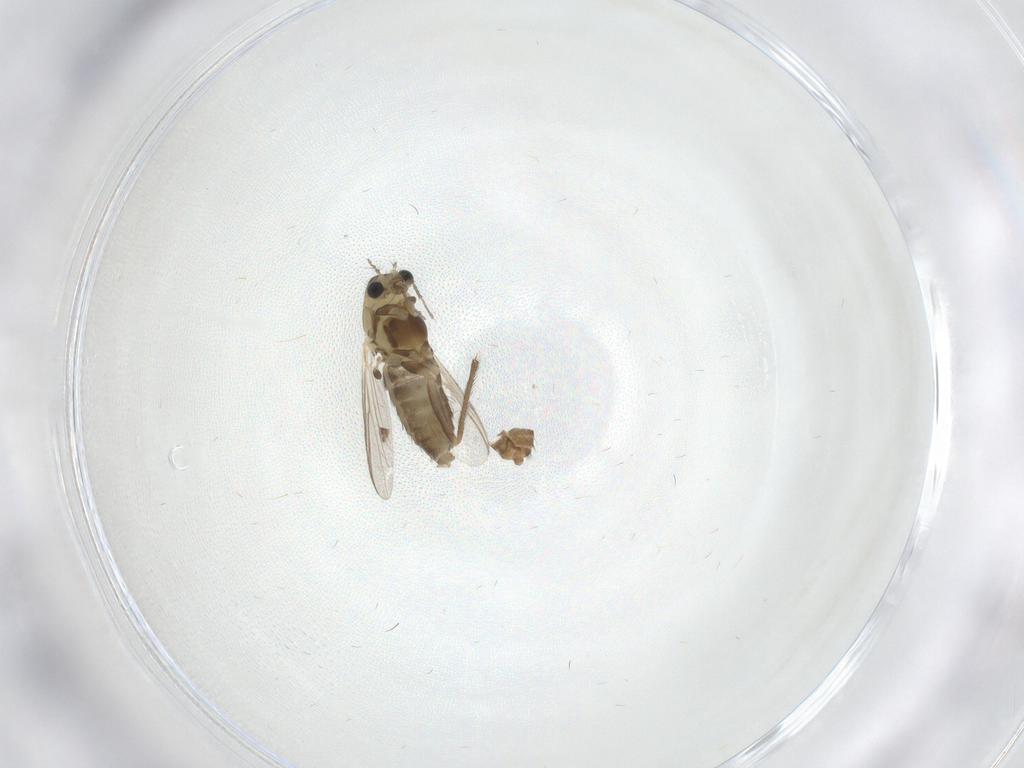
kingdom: Animalia
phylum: Arthropoda
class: Insecta
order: Diptera
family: Chironomidae
